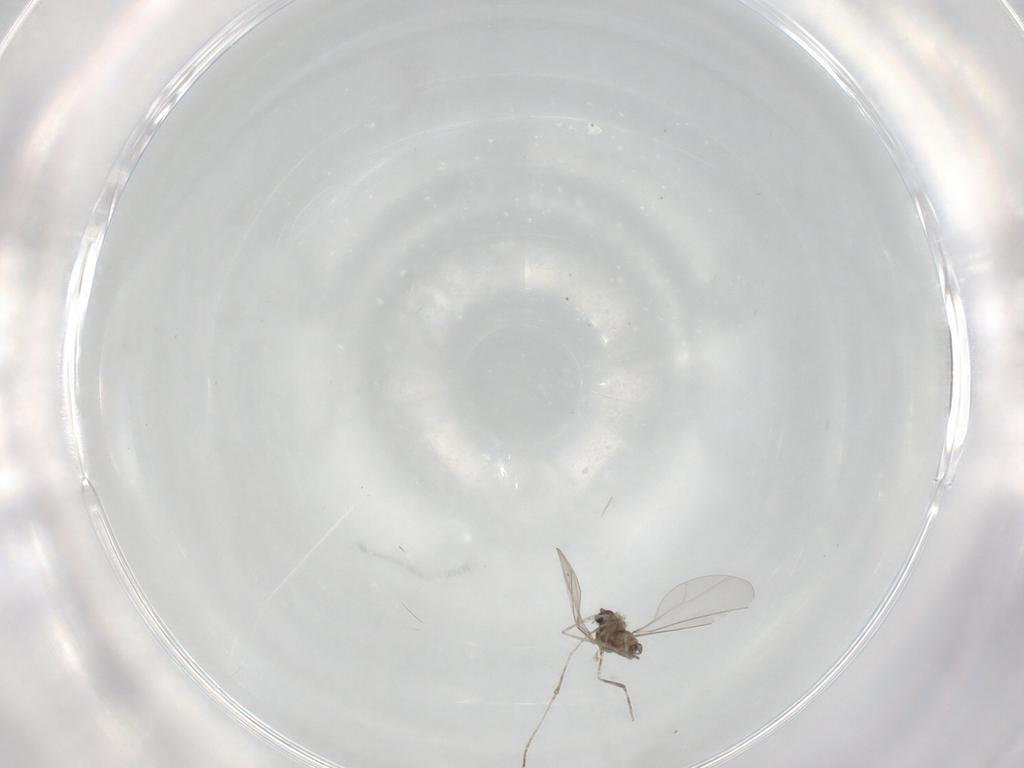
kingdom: Animalia
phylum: Arthropoda
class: Insecta
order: Diptera
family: Cecidomyiidae
